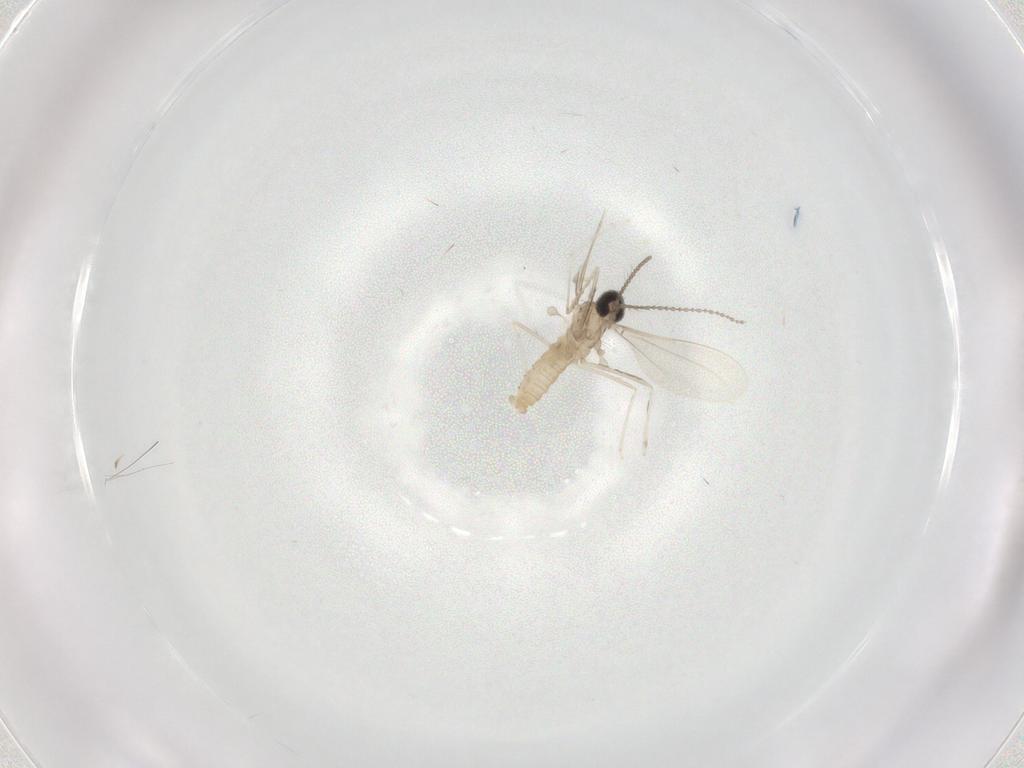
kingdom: Animalia
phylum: Arthropoda
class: Insecta
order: Diptera
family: Cecidomyiidae
